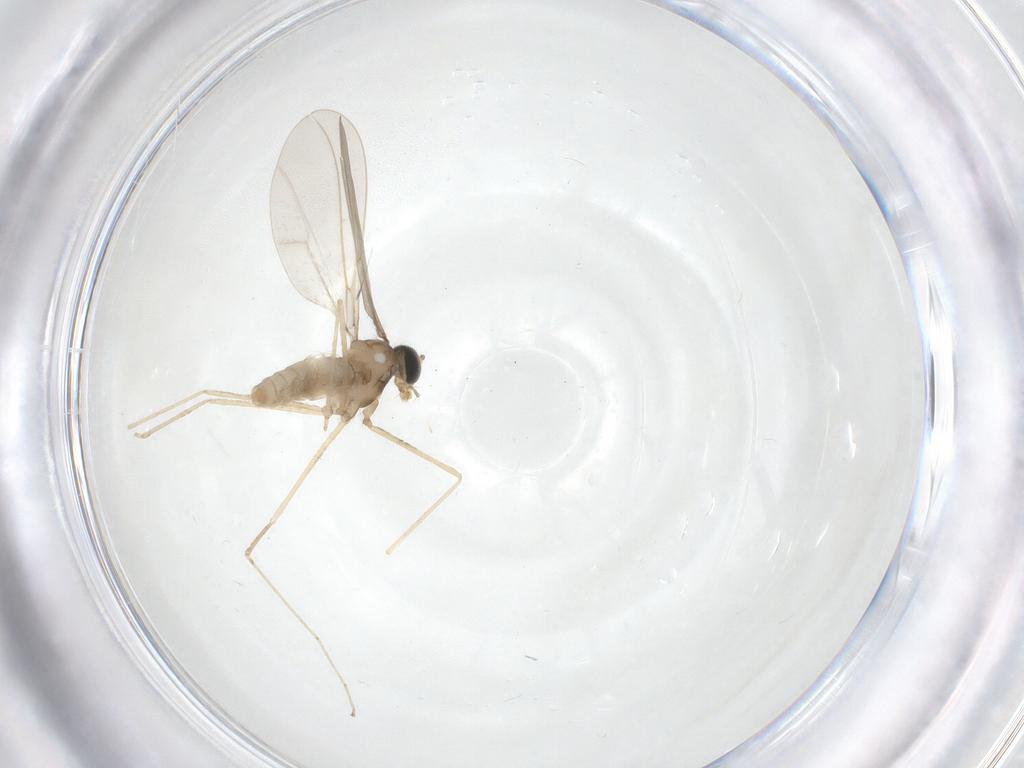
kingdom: Animalia
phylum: Arthropoda
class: Insecta
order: Diptera
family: Cecidomyiidae
